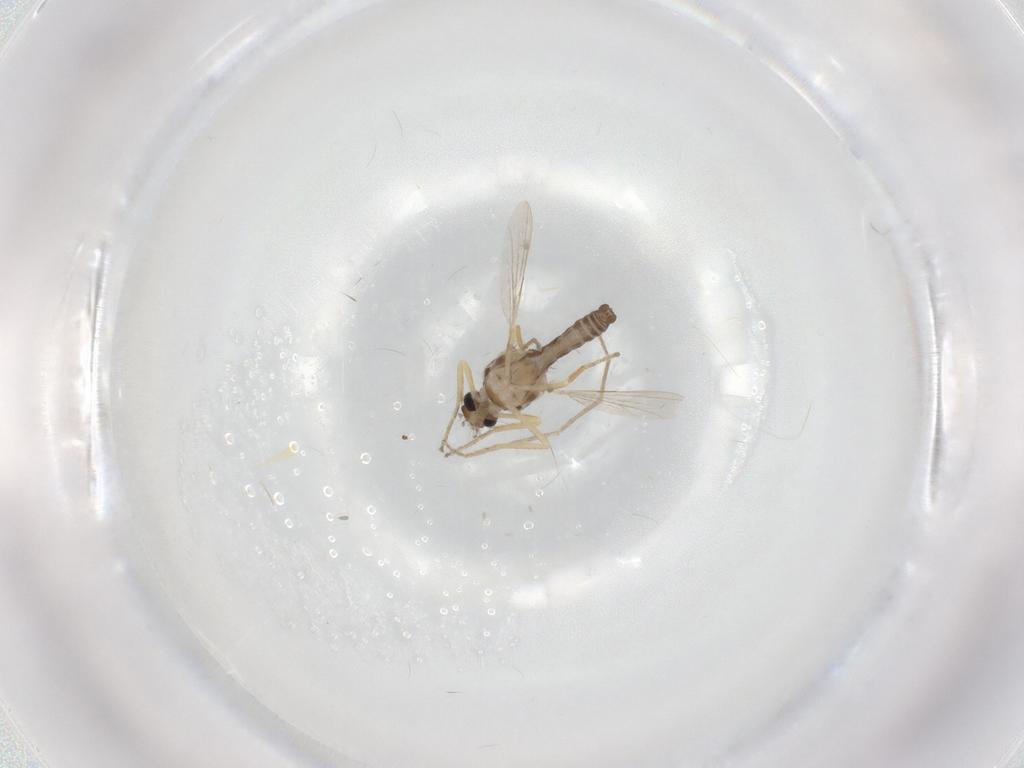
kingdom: Animalia
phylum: Arthropoda
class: Insecta
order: Diptera
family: Ceratopogonidae
